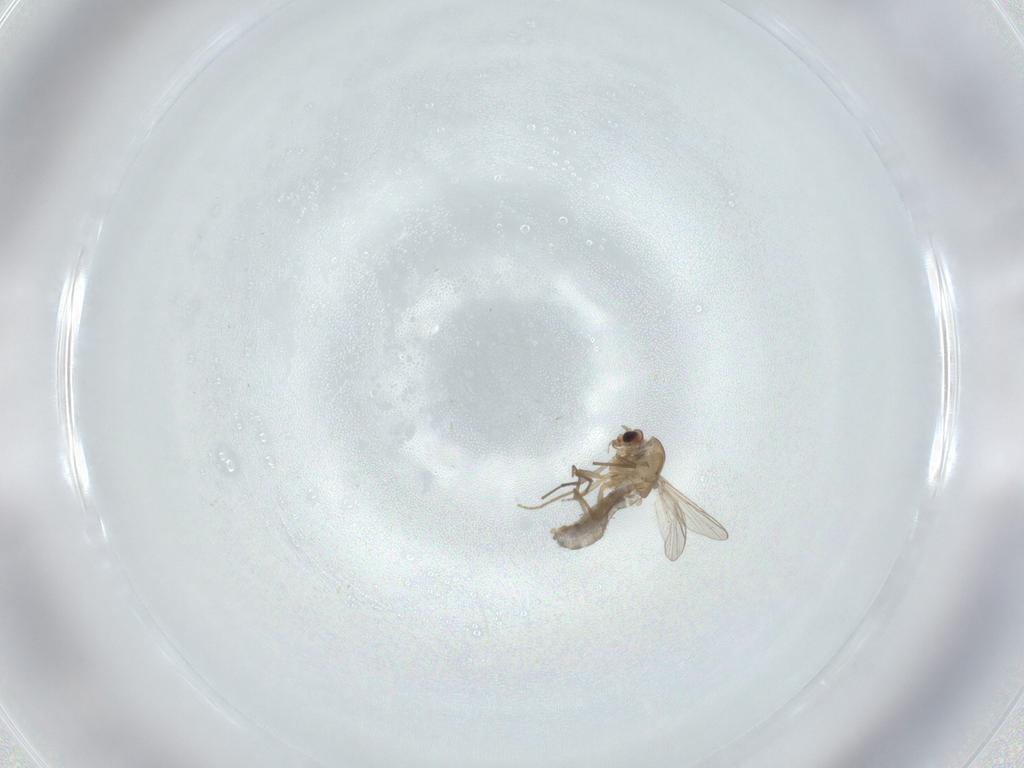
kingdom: Animalia
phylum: Arthropoda
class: Insecta
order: Diptera
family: Chironomidae
